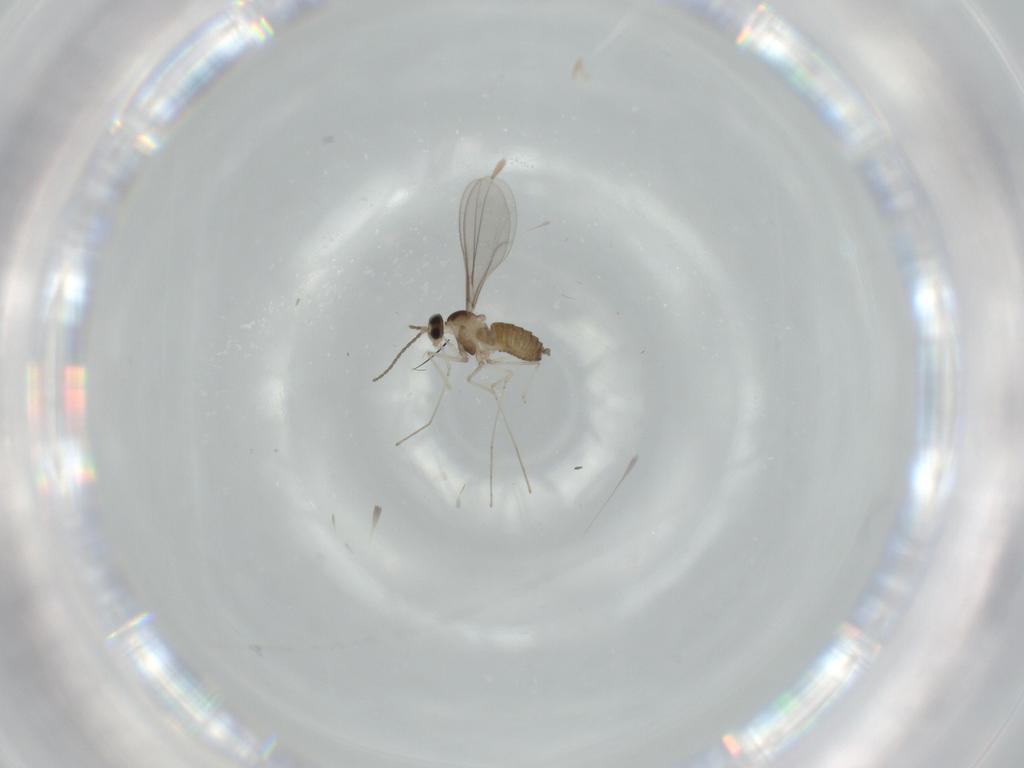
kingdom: Animalia
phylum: Arthropoda
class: Insecta
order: Diptera
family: Cecidomyiidae
